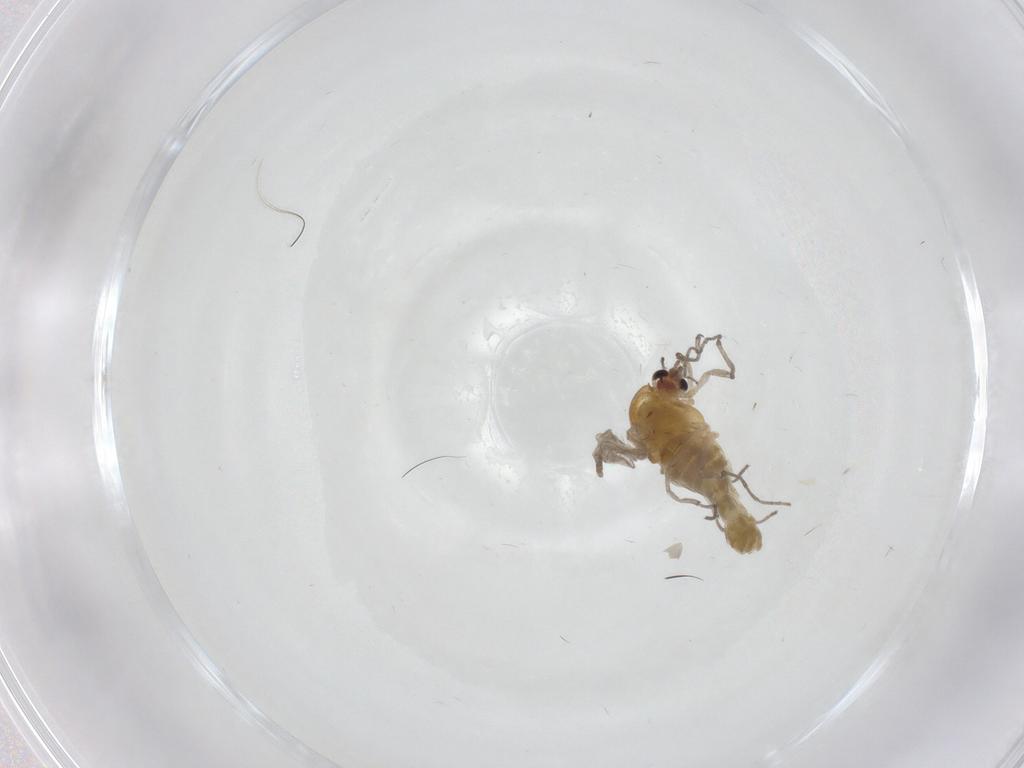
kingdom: Animalia
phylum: Arthropoda
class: Insecta
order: Diptera
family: Chironomidae
